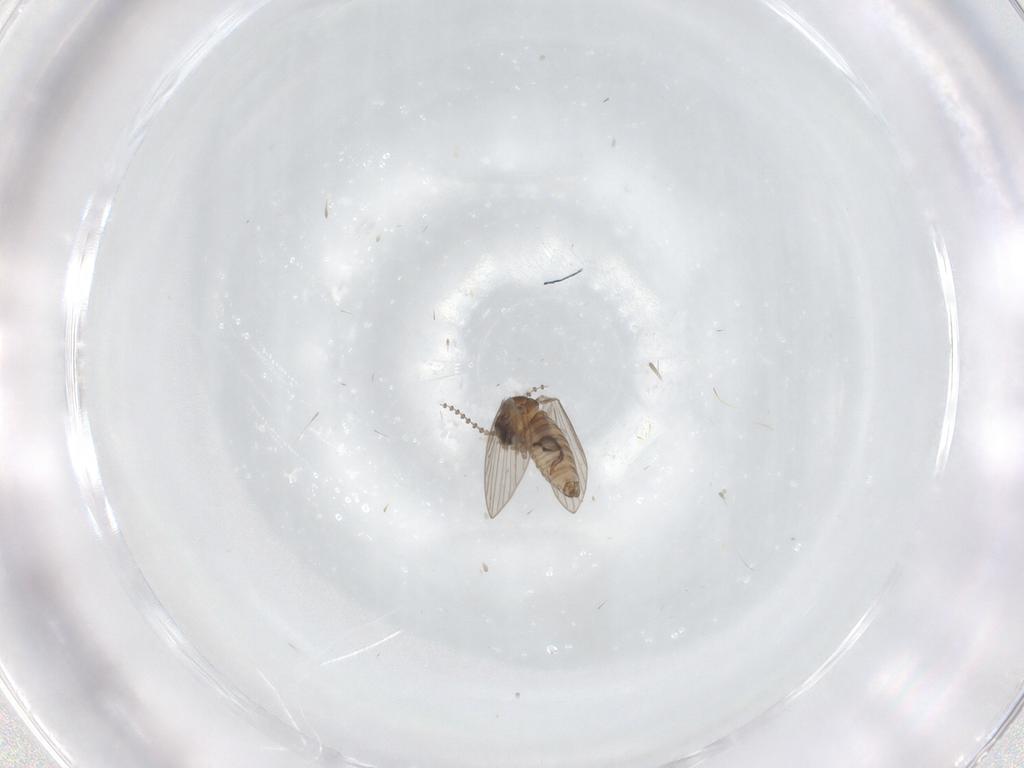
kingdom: Animalia
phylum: Arthropoda
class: Insecta
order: Diptera
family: Psychodidae
